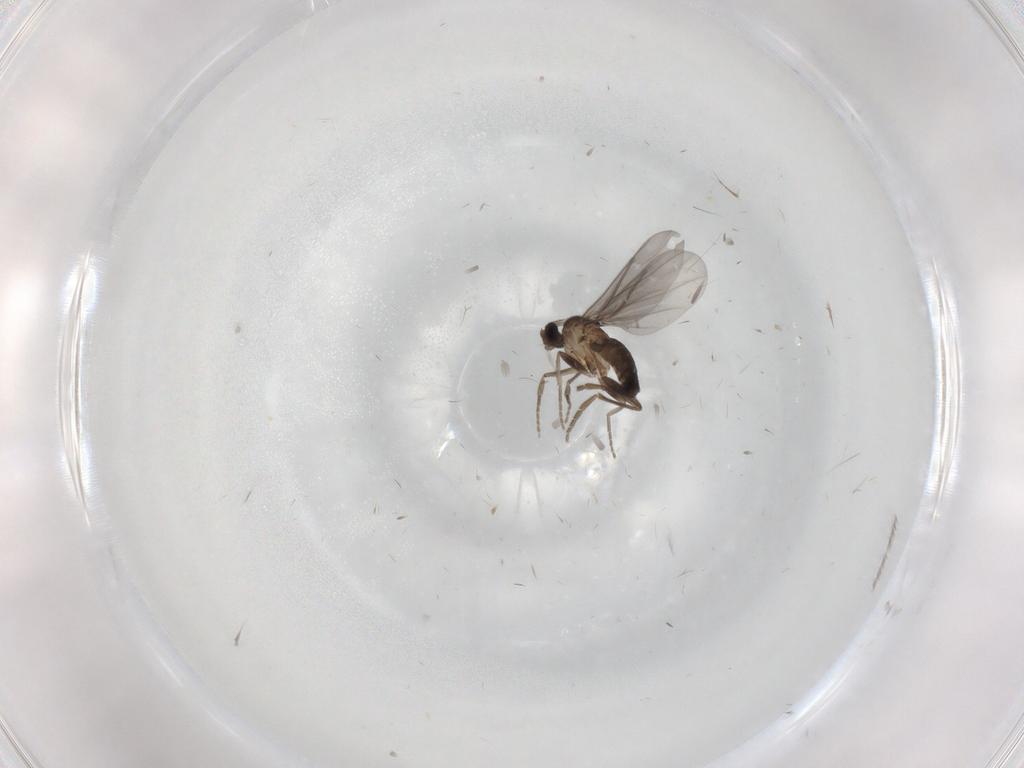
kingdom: Animalia
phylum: Arthropoda
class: Insecta
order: Diptera
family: Phoridae
